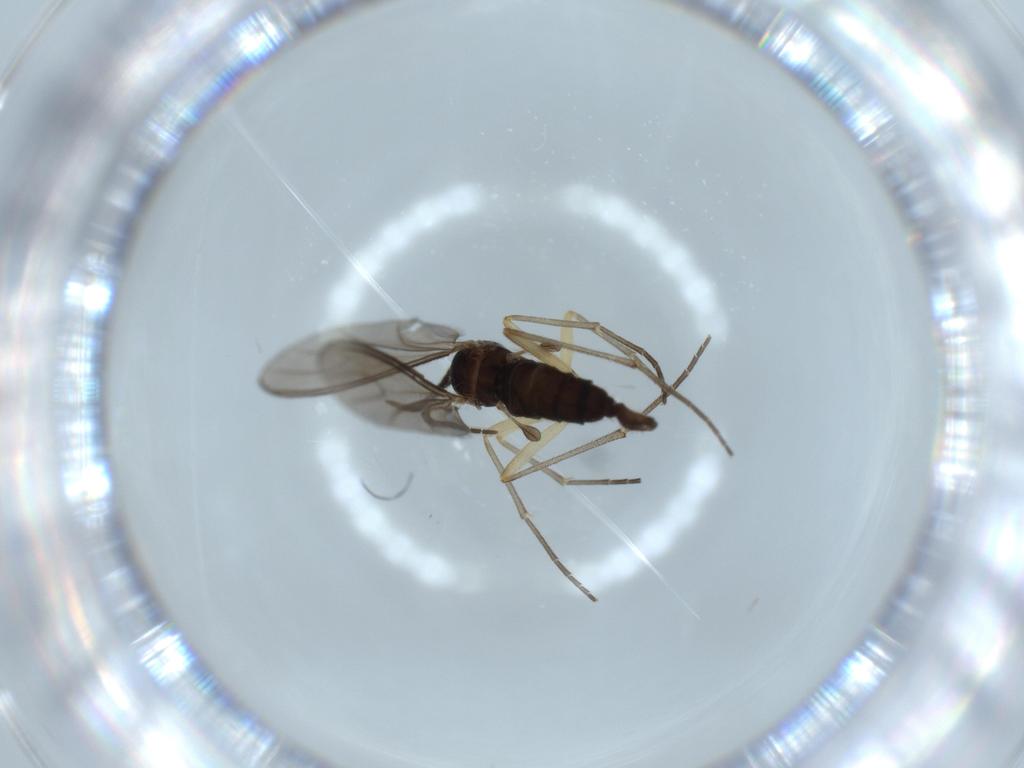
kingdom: Animalia
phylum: Arthropoda
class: Insecta
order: Diptera
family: Sciaridae
